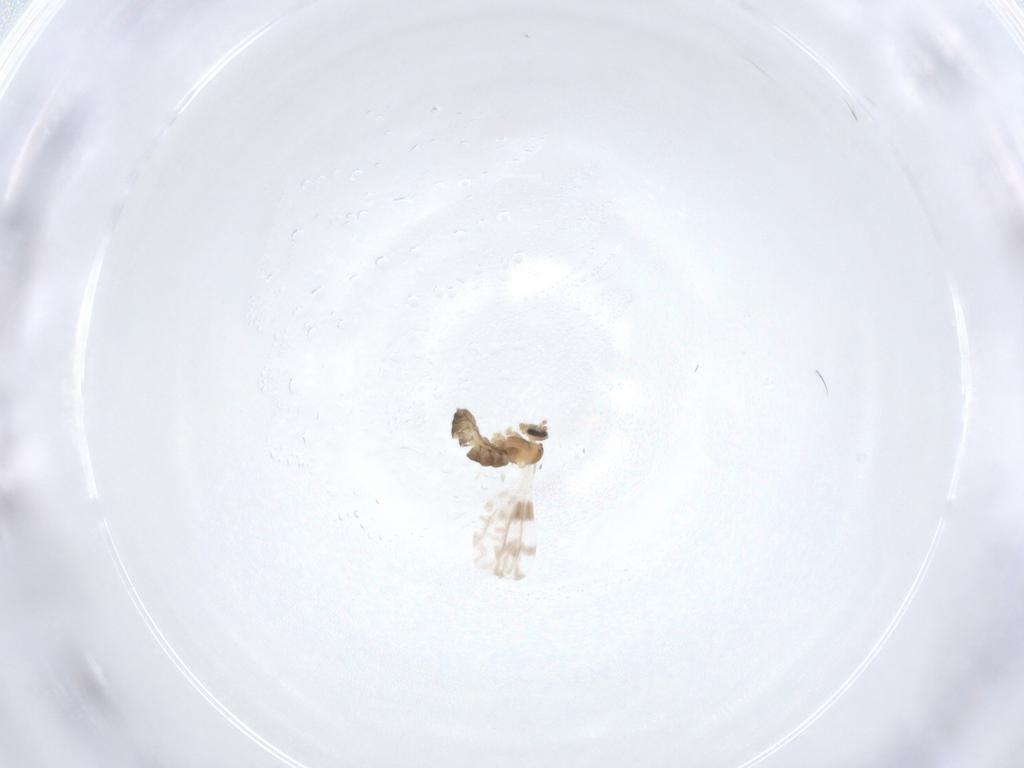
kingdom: Animalia
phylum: Arthropoda
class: Insecta
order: Diptera
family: Cecidomyiidae
